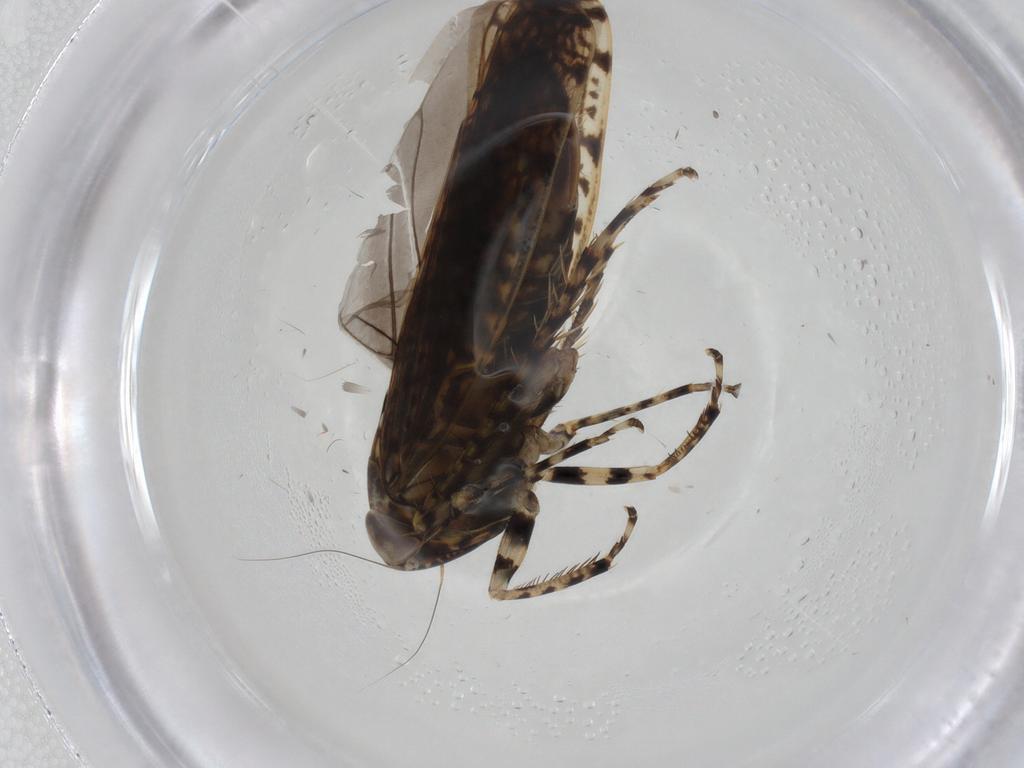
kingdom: Animalia
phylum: Arthropoda
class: Insecta
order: Hemiptera
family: Cicadellidae
